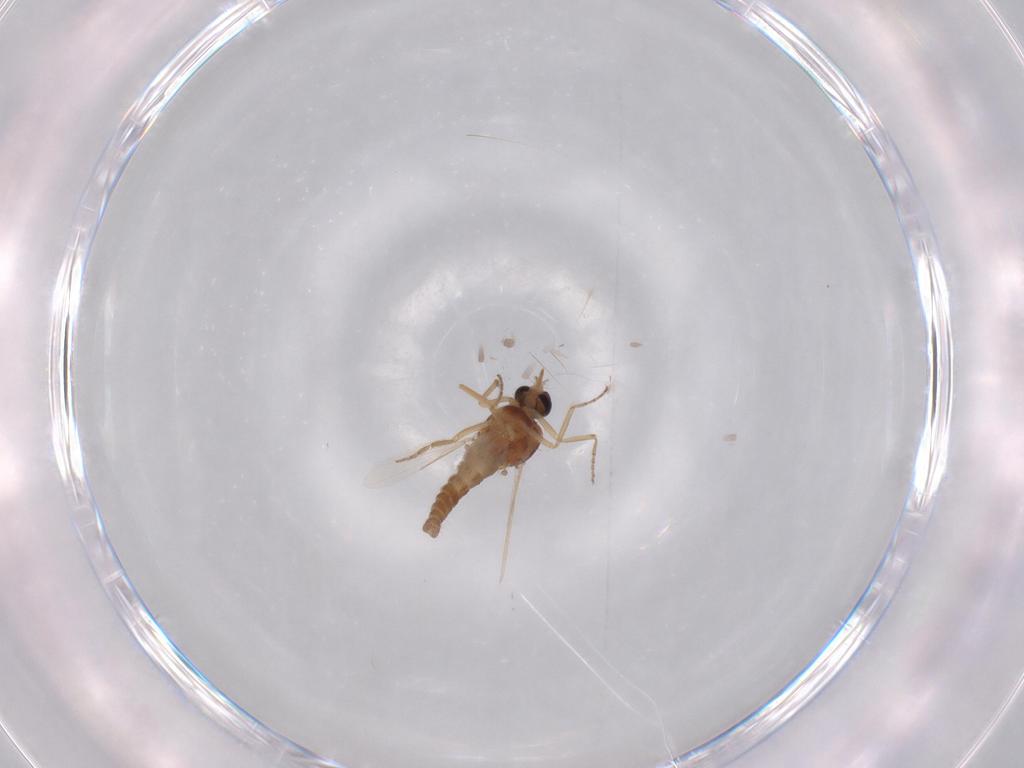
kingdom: Animalia
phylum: Arthropoda
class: Insecta
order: Diptera
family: Ceratopogonidae
